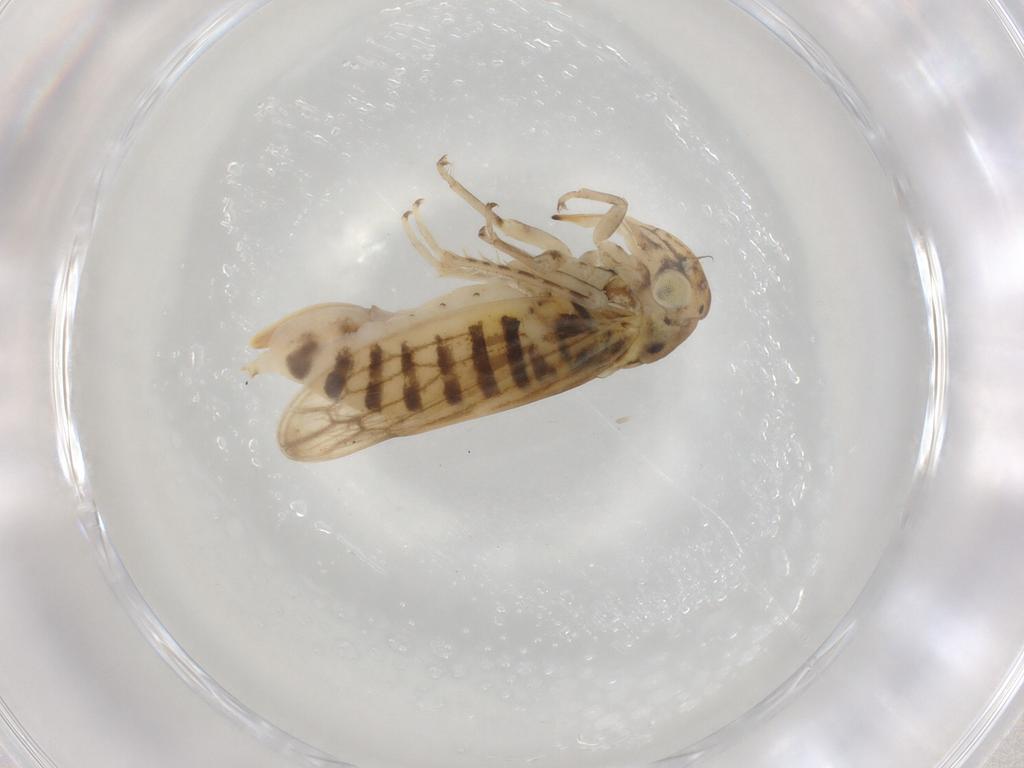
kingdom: Animalia
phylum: Arthropoda
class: Insecta
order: Hemiptera
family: Cicadellidae
